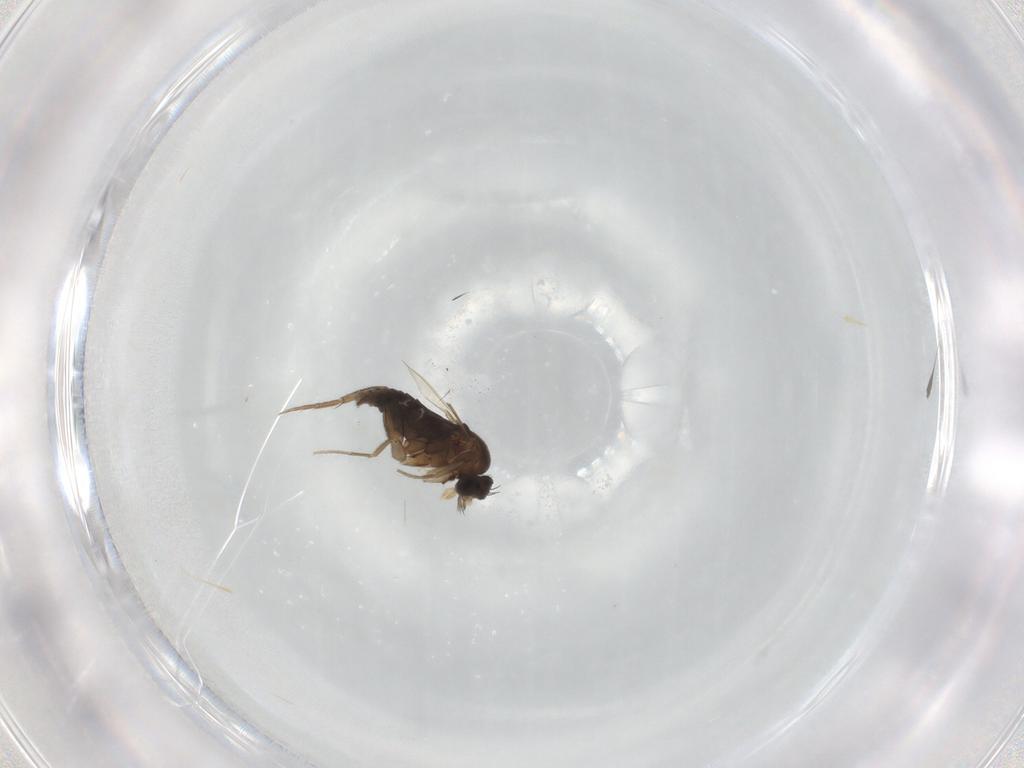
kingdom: Animalia
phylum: Arthropoda
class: Insecta
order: Diptera
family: Phoridae
